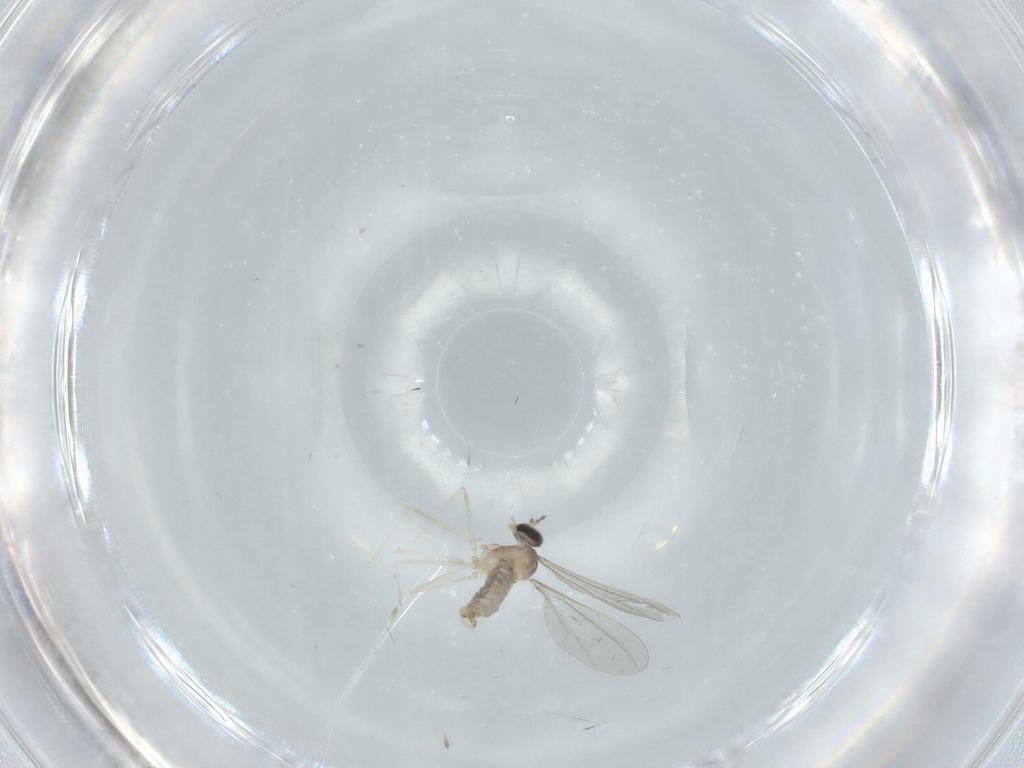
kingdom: Animalia
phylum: Arthropoda
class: Insecta
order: Diptera
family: Cecidomyiidae
